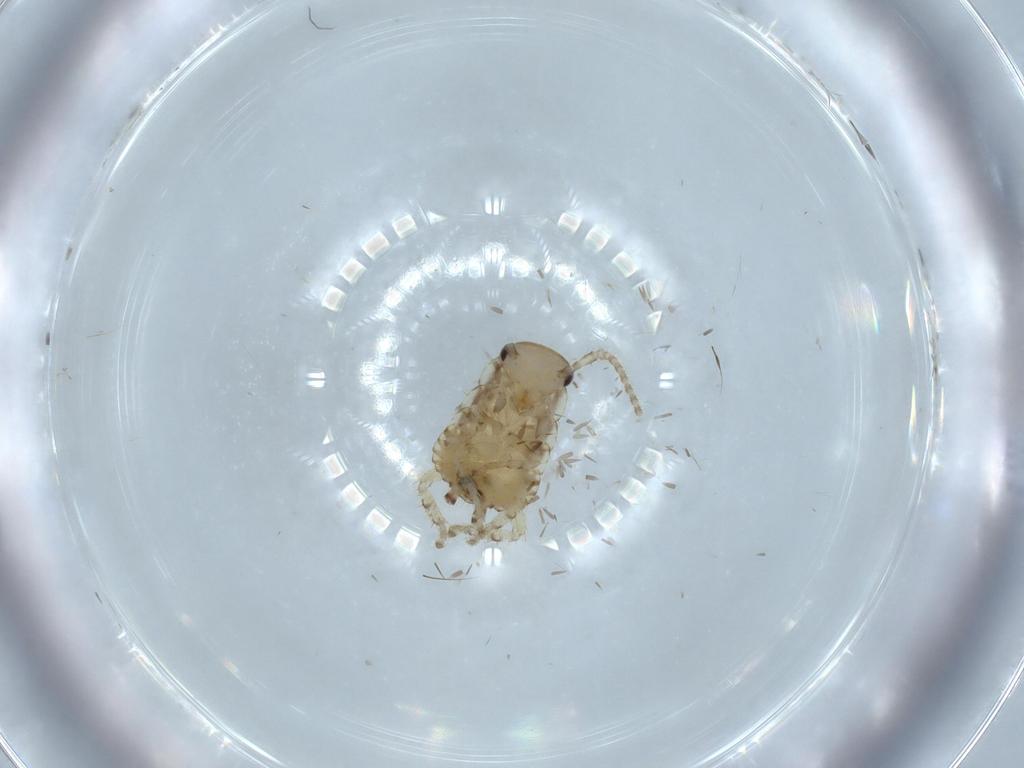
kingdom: Animalia
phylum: Arthropoda
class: Insecta
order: Blattodea
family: Ectobiidae
